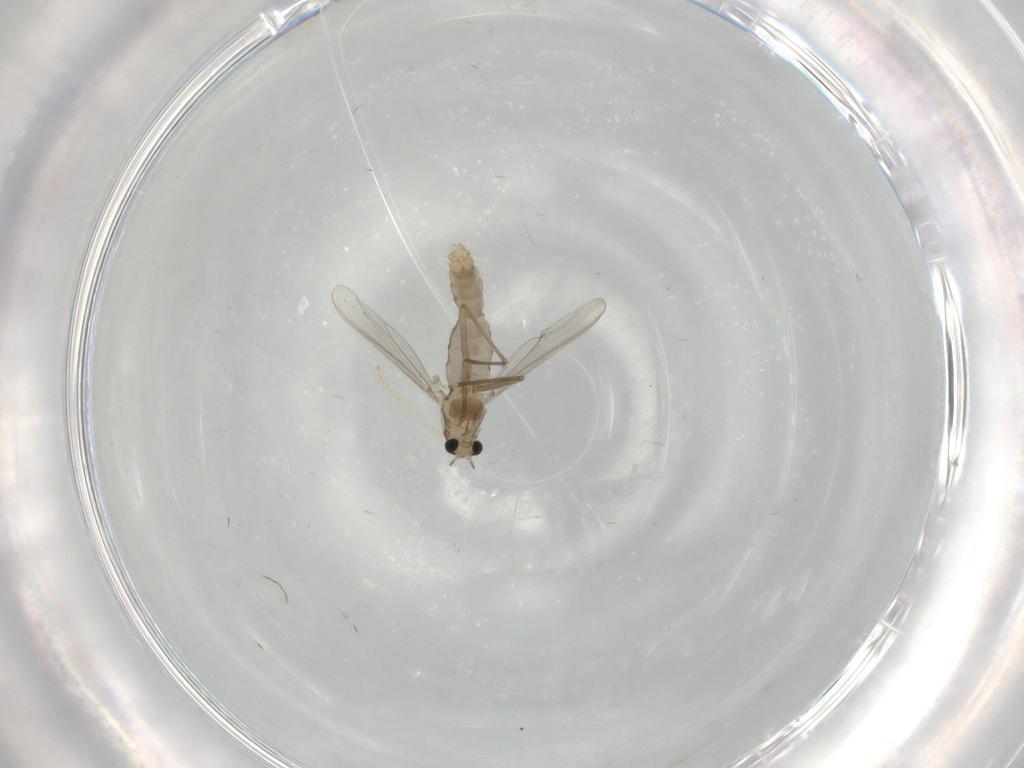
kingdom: Animalia
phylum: Arthropoda
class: Insecta
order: Diptera
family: Chironomidae
